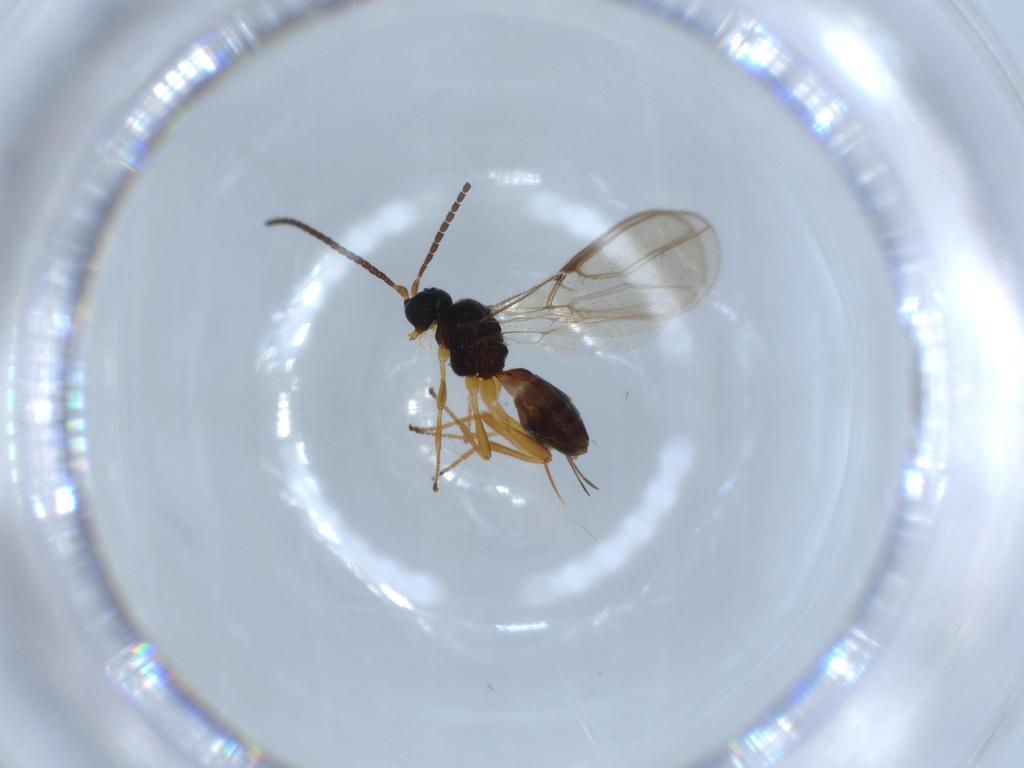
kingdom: Animalia
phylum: Arthropoda
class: Insecta
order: Hymenoptera
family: Braconidae
